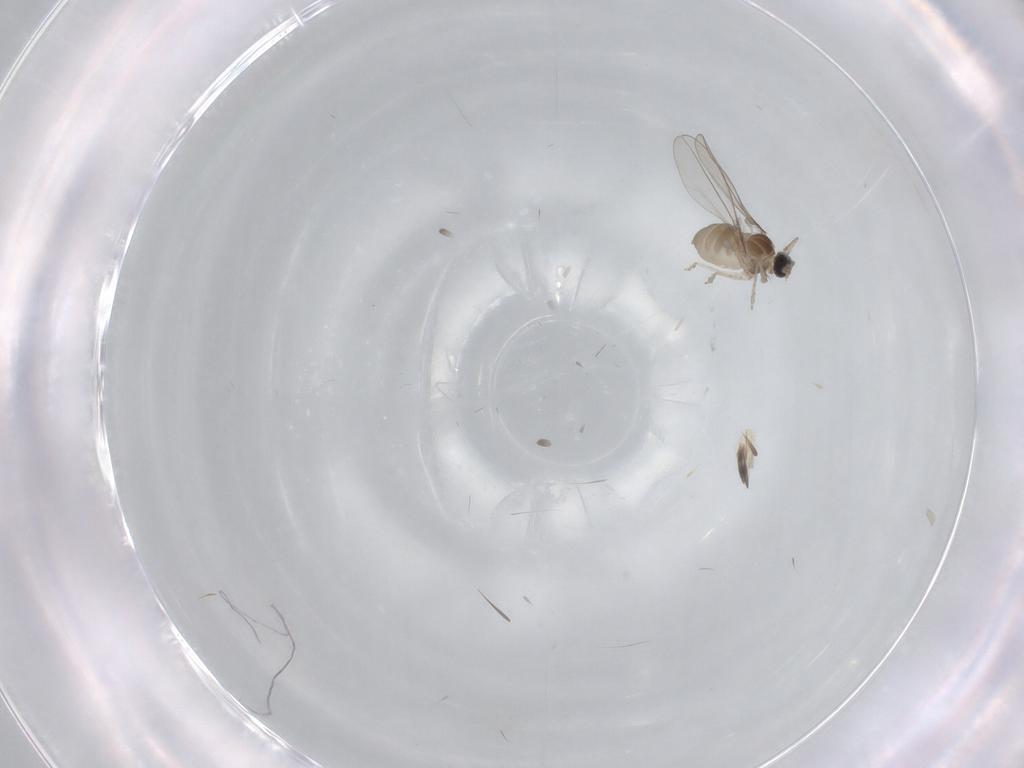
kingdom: Animalia
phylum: Arthropoda
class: Insecta
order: Diptera
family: Cecidomyiidae
